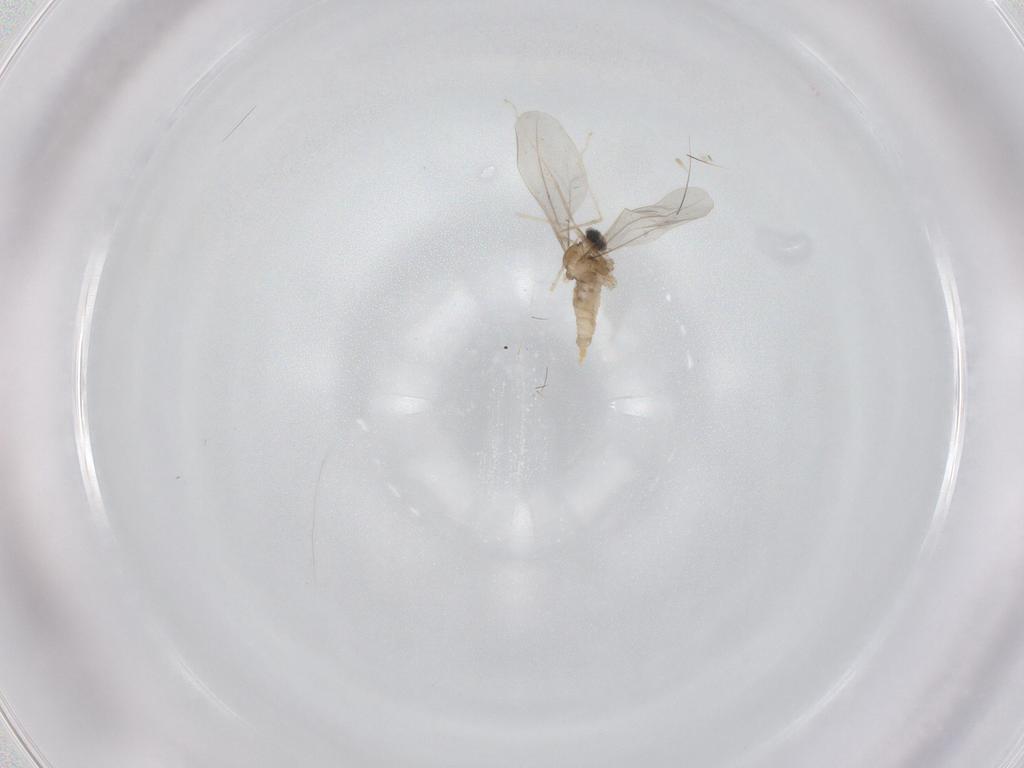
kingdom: Animalia
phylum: Arthropoda
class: Insecta
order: Diptera
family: Cecidomyiidae
